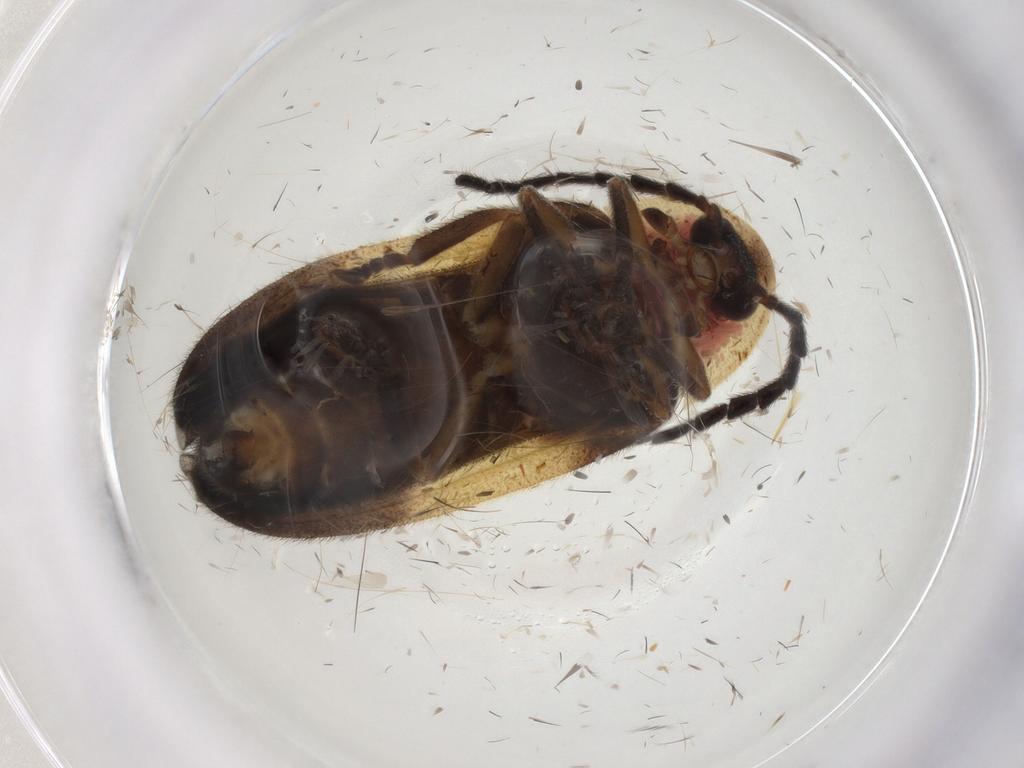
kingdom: Animalia
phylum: Arthropoda
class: Insecta
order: Coleoptera
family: Lampyridae
